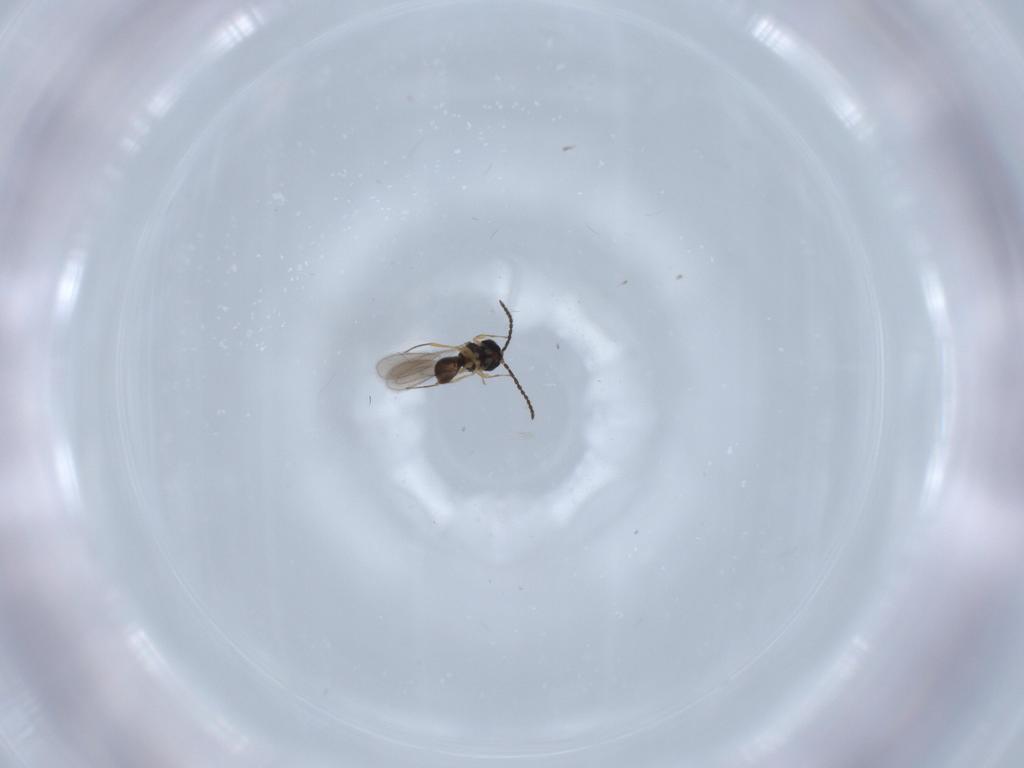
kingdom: Animalia
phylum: Arthropoda
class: Insecta
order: Hymenoptera
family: Scelionidae
